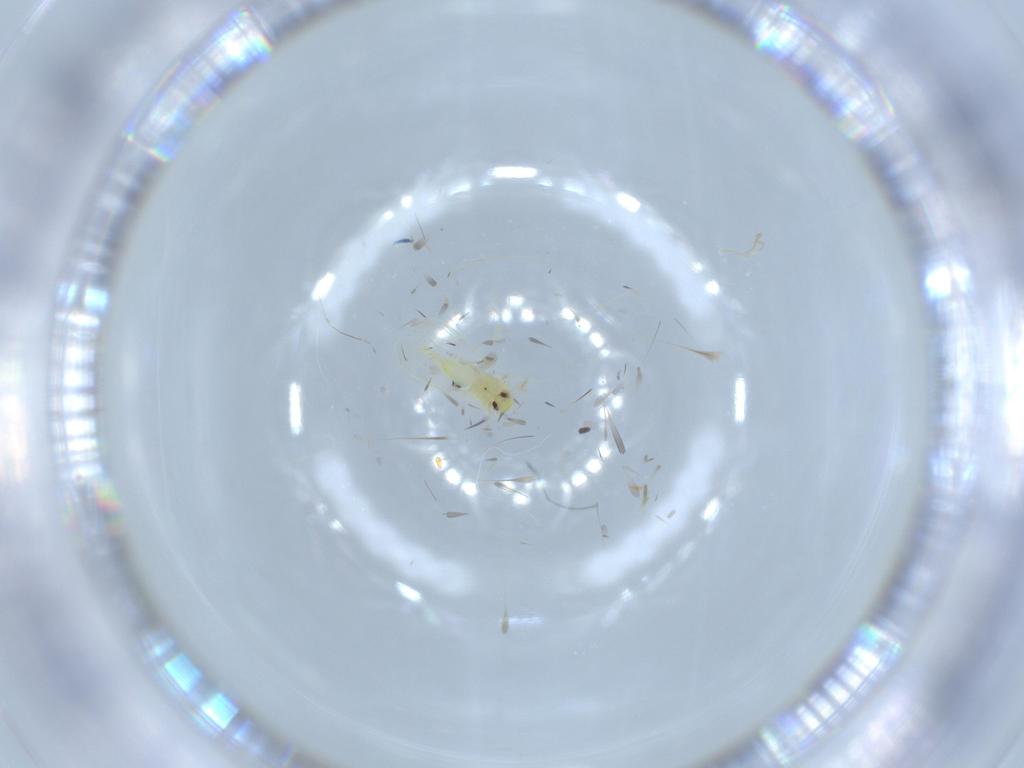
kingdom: Animalia
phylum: Arthropoda
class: Insecta
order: Hemiptera
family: Aleyrodidae
